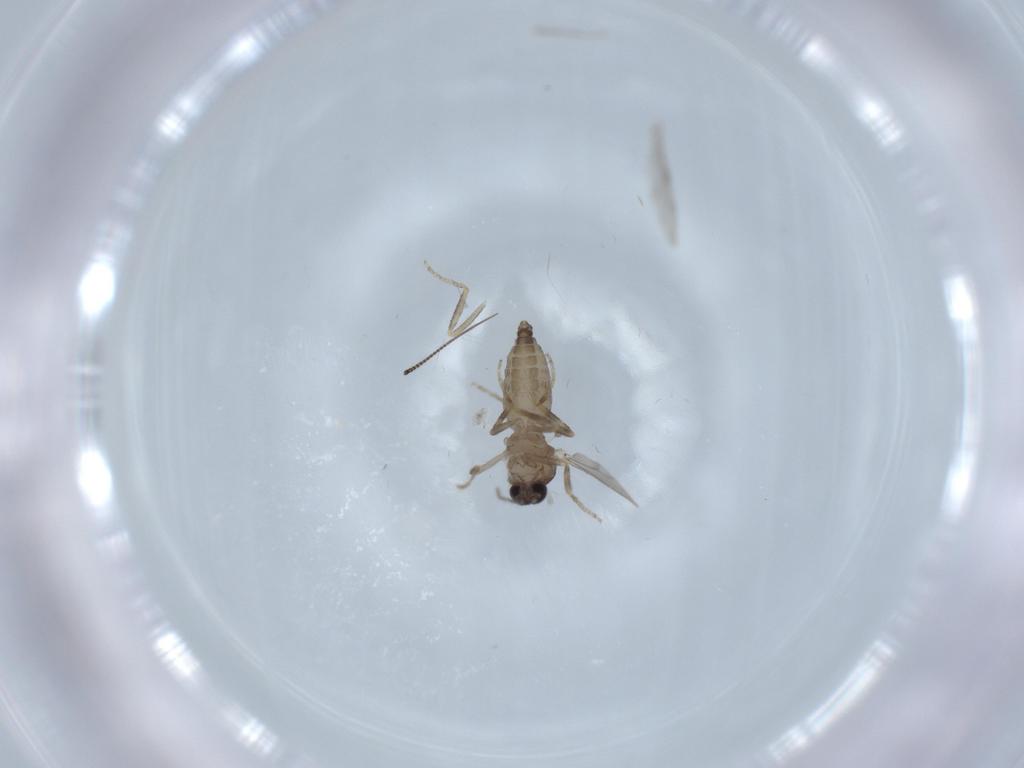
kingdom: Animalia
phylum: Arthropoda
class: Insecta
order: Diptera
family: Ceratopogonidae
